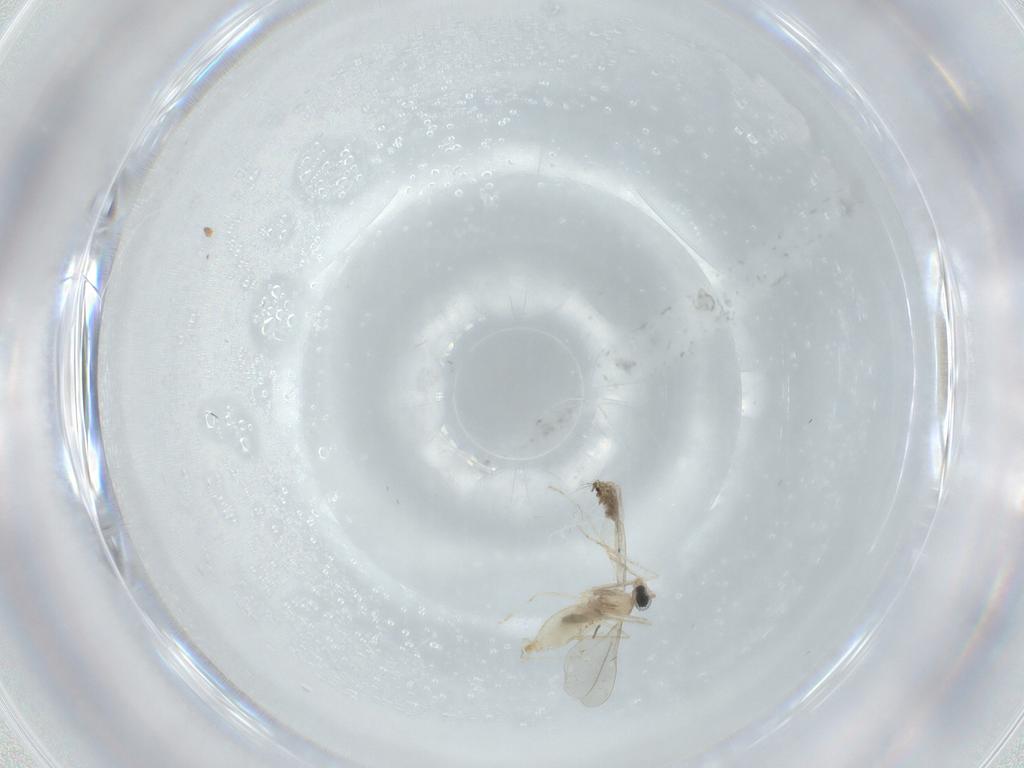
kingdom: Animalia
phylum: Arthropoda
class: Insecta
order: Diptera
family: Cecidomyiidae
